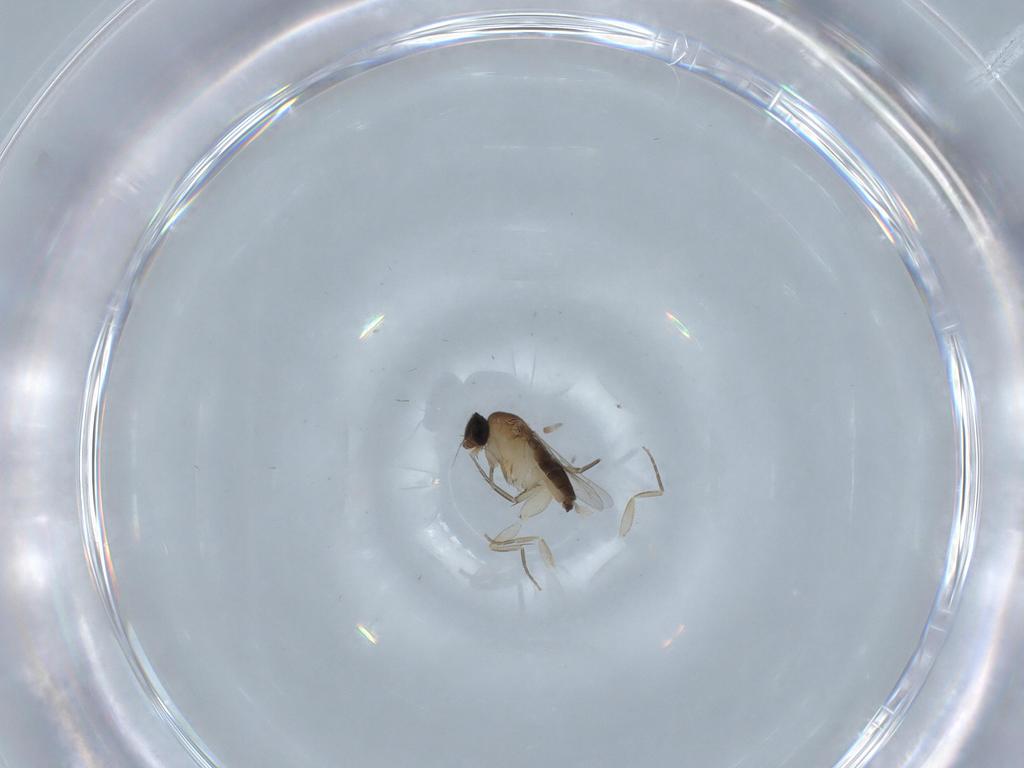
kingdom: Animalia
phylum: Arthropoda
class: Insecta
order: Diptera
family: Phoridae
